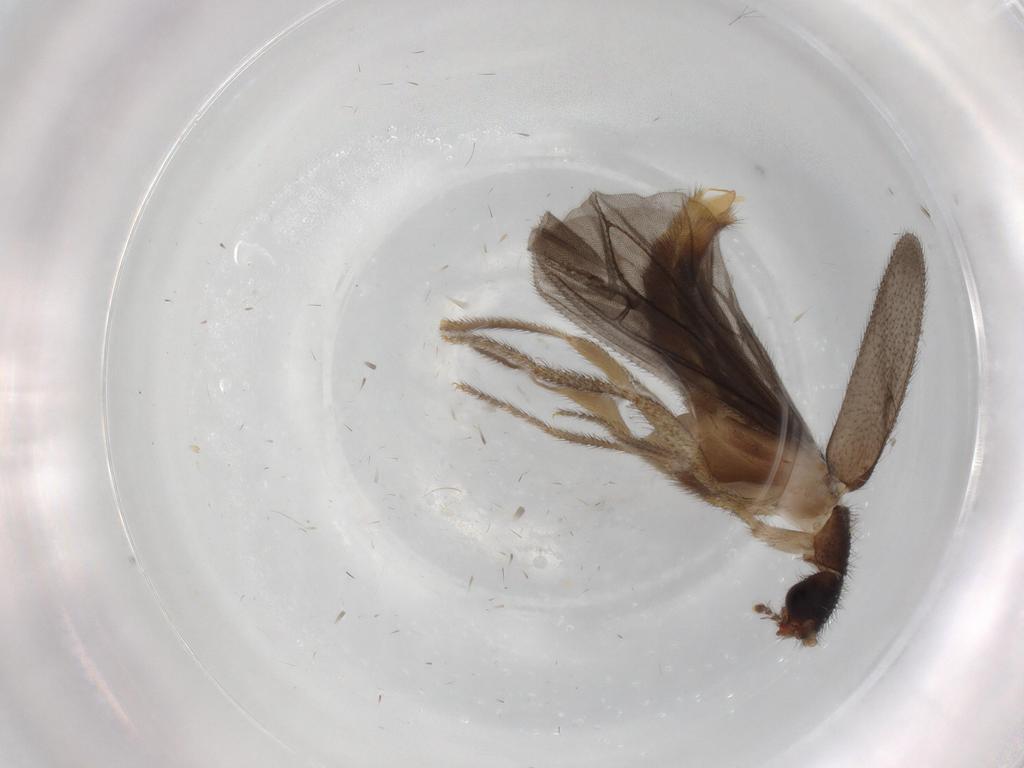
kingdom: Animalia
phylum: Arthropoda
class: Insecta
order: Coleoptera
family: Phengodidae
